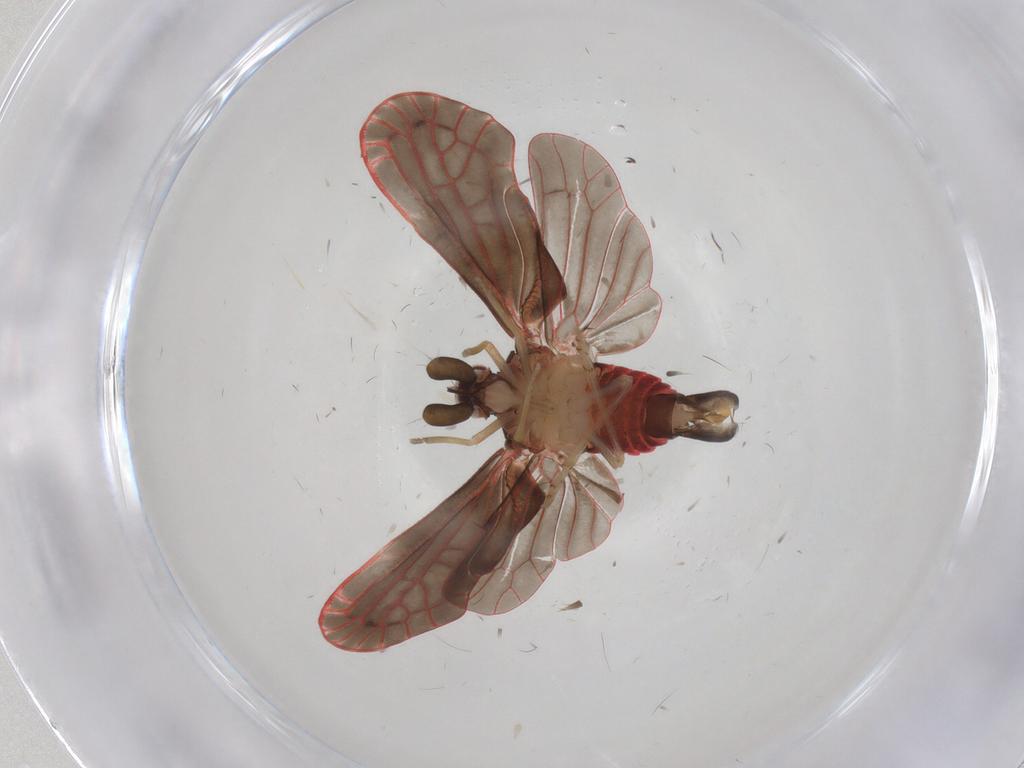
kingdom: Animalia
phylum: Arthropoda
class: Insecta
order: Hemiptera
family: Derbidae
